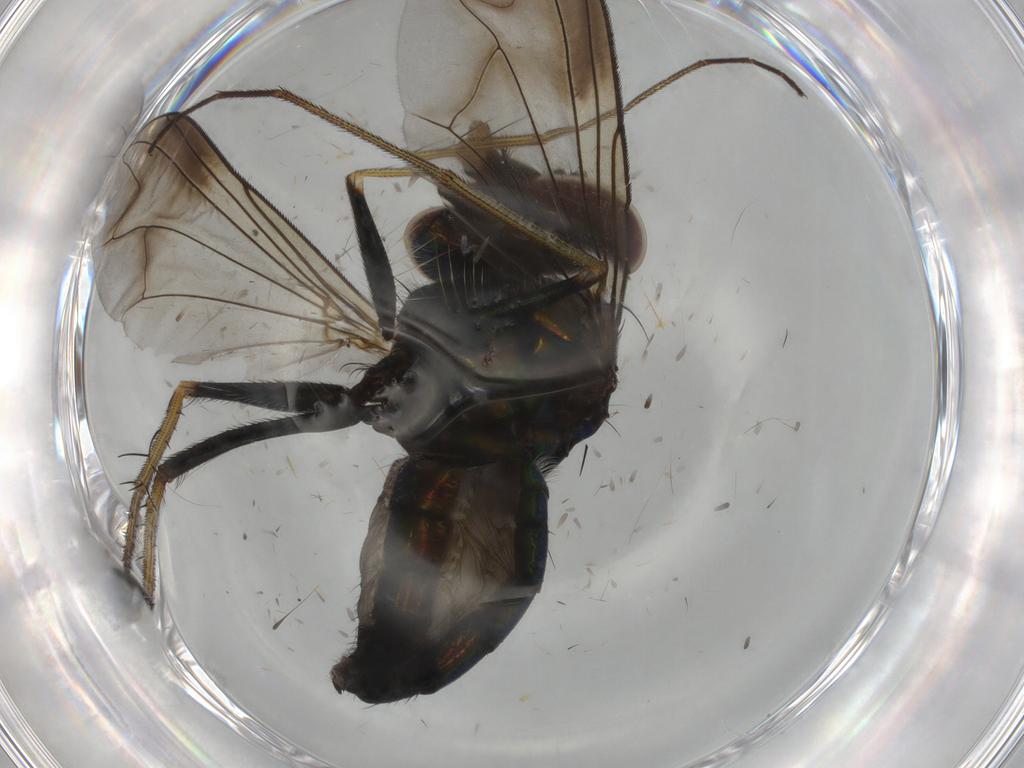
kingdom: Animalia
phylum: Arthropoda
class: Insecta
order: Diptera
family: Dolichopodidae
